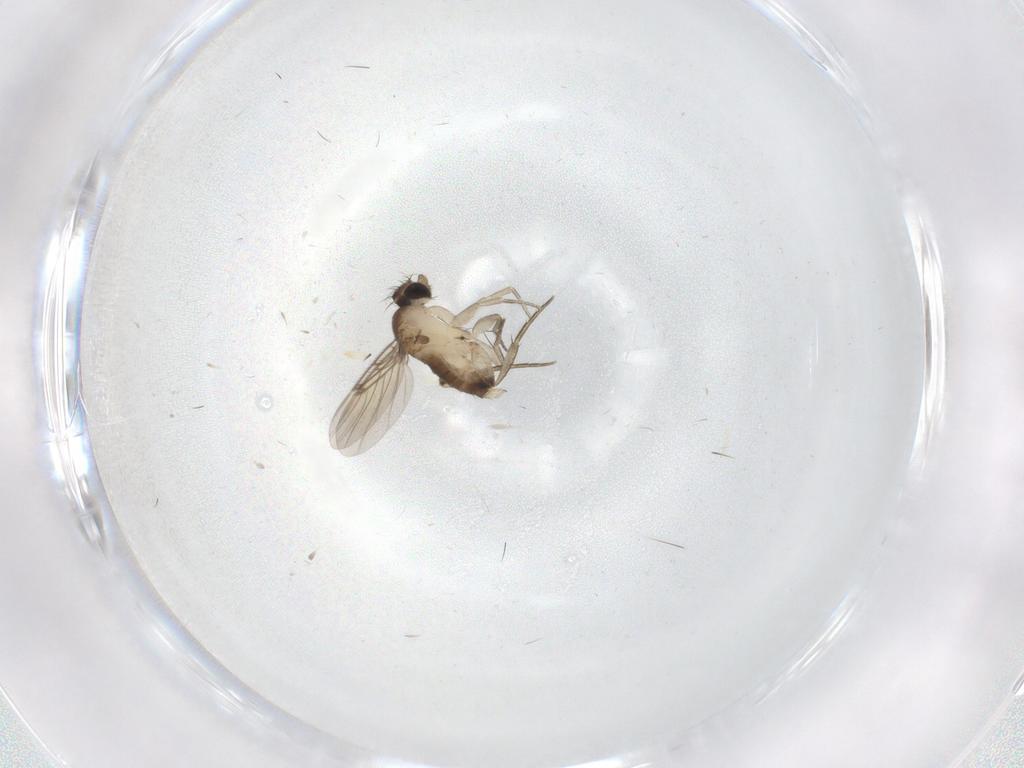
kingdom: Animalia
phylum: Arthropoda
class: Insecta
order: Diptera
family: Phoridae
